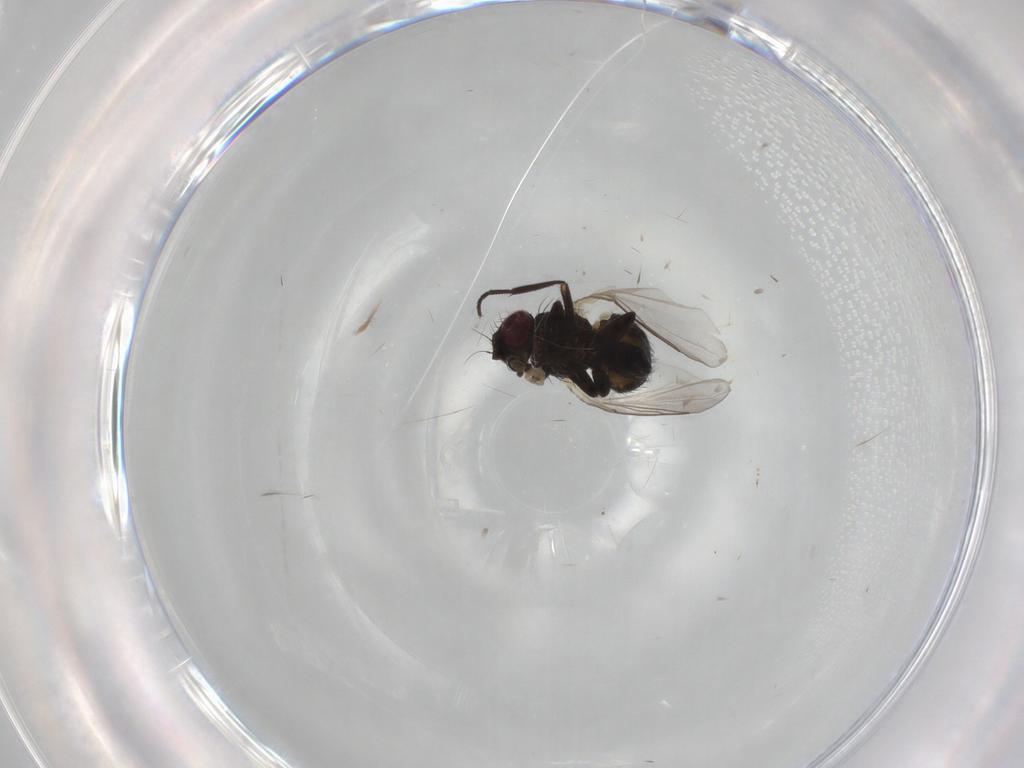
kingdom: Animalia
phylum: Arthropoda
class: Insecta
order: Diptera
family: Agromyzidae
